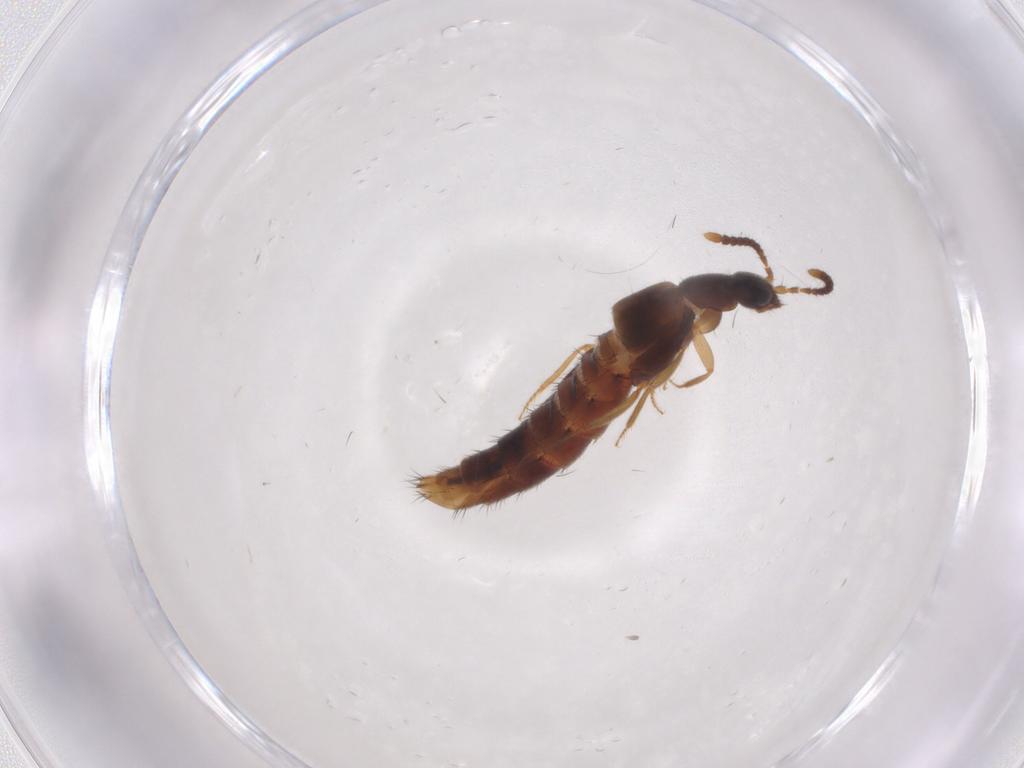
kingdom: Animalia
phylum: Arthropoda
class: Insecta
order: Coleoptera
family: Staphylinidae
